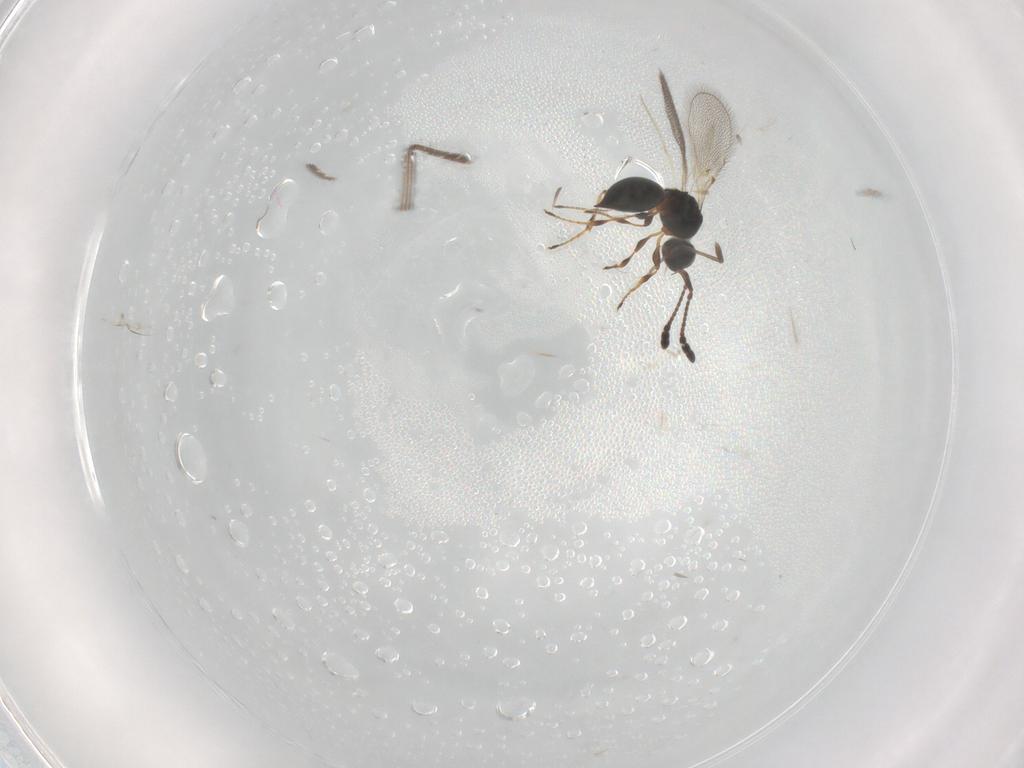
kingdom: Animalia
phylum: Arthropoda
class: Insecta
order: Hymenoptera
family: Diapriidae
